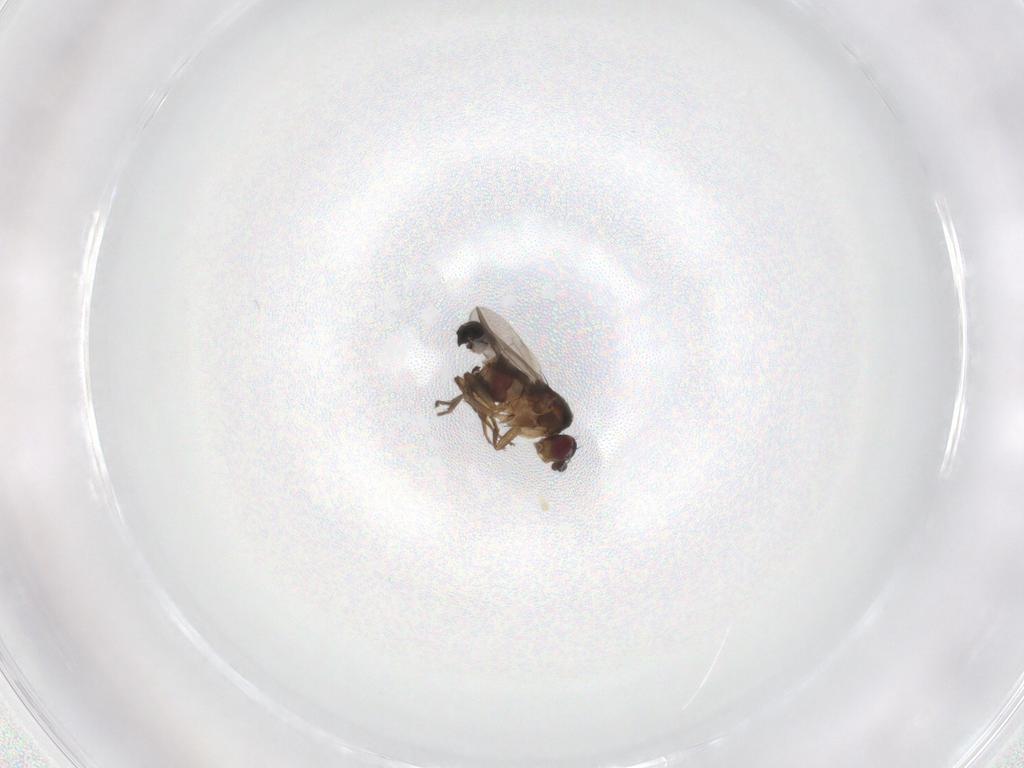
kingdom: Animalia
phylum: Arthropoda
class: Insecta
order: Diptera
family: Sphaeroceridae
